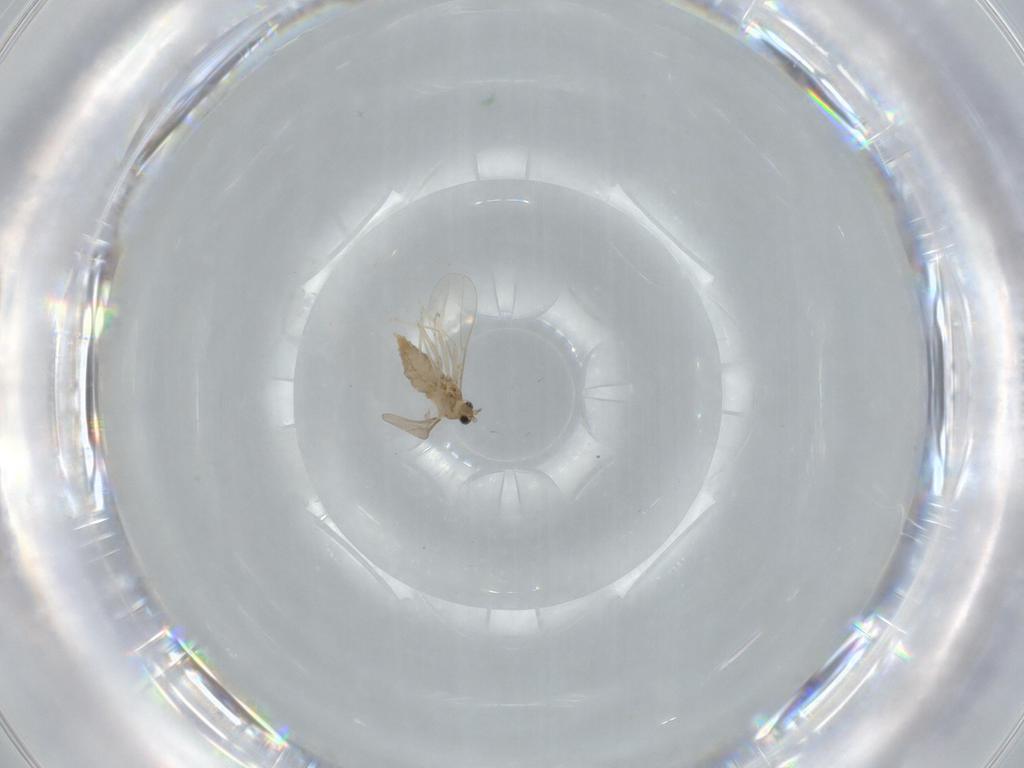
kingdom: Animalia
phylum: Arthropoda
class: Insecta
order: Diptera
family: Cecidomyiidae
